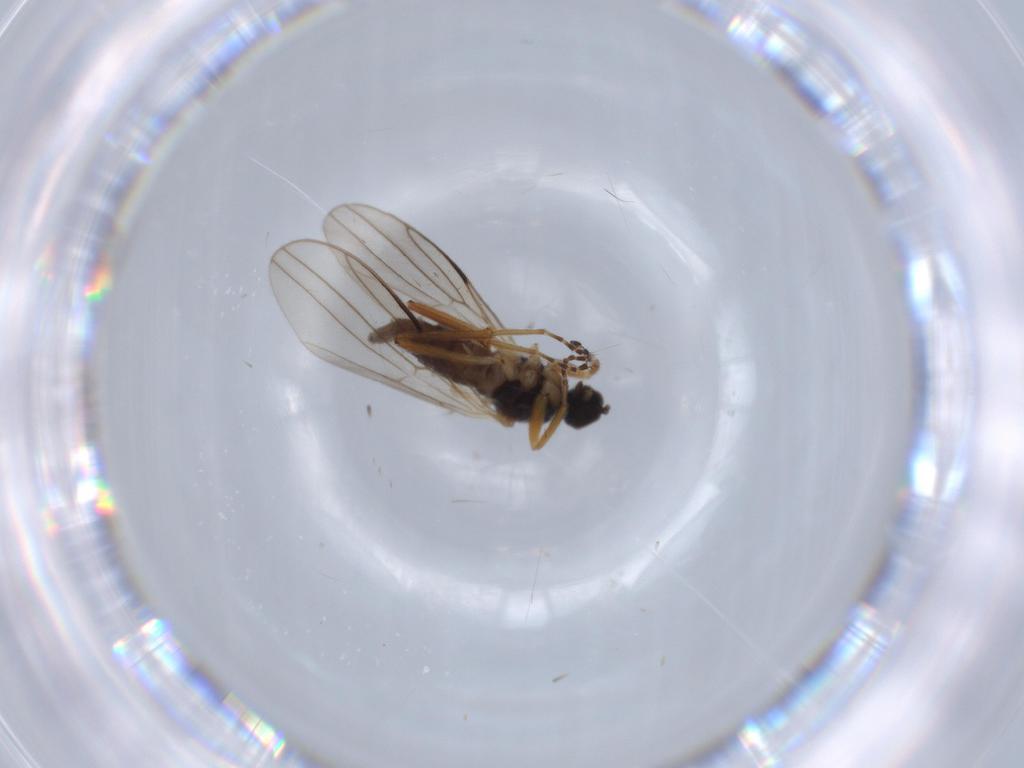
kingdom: Animalia
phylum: Arthropoda
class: Insecta
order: Diptera
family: Hybotidae
